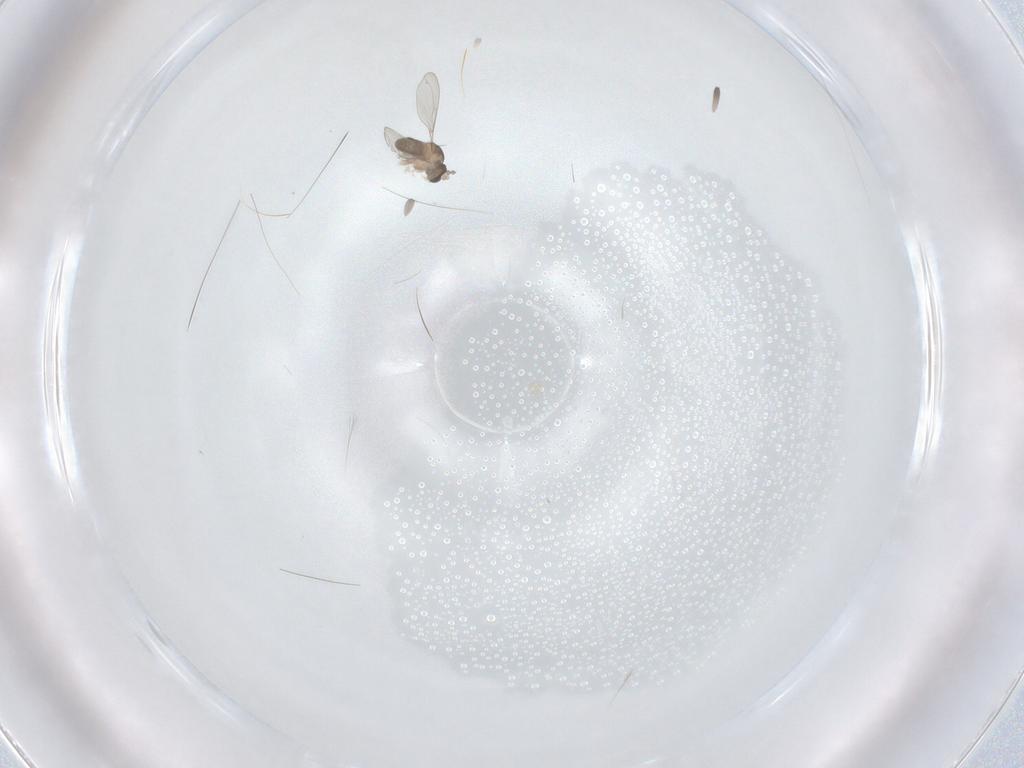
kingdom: Animalia
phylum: Arthropoda
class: Insecta
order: Diptera
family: Cecidomyiidae
